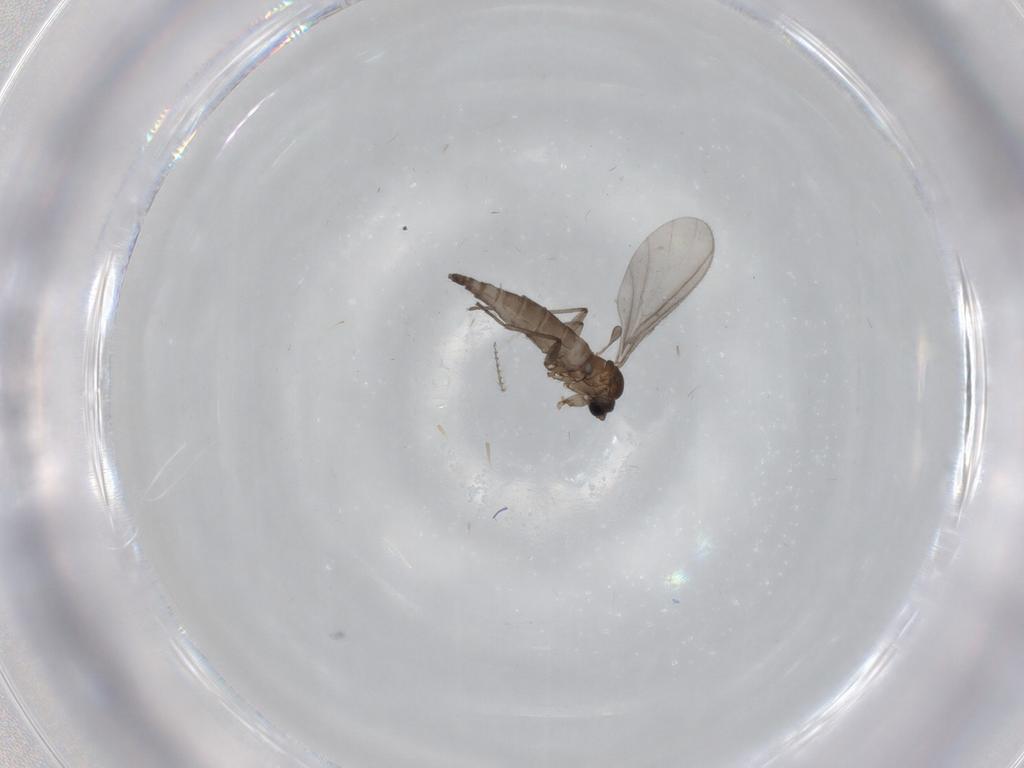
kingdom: Animalia
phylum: Arthropoda
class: Insecta
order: Diptera
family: Sciaridae
